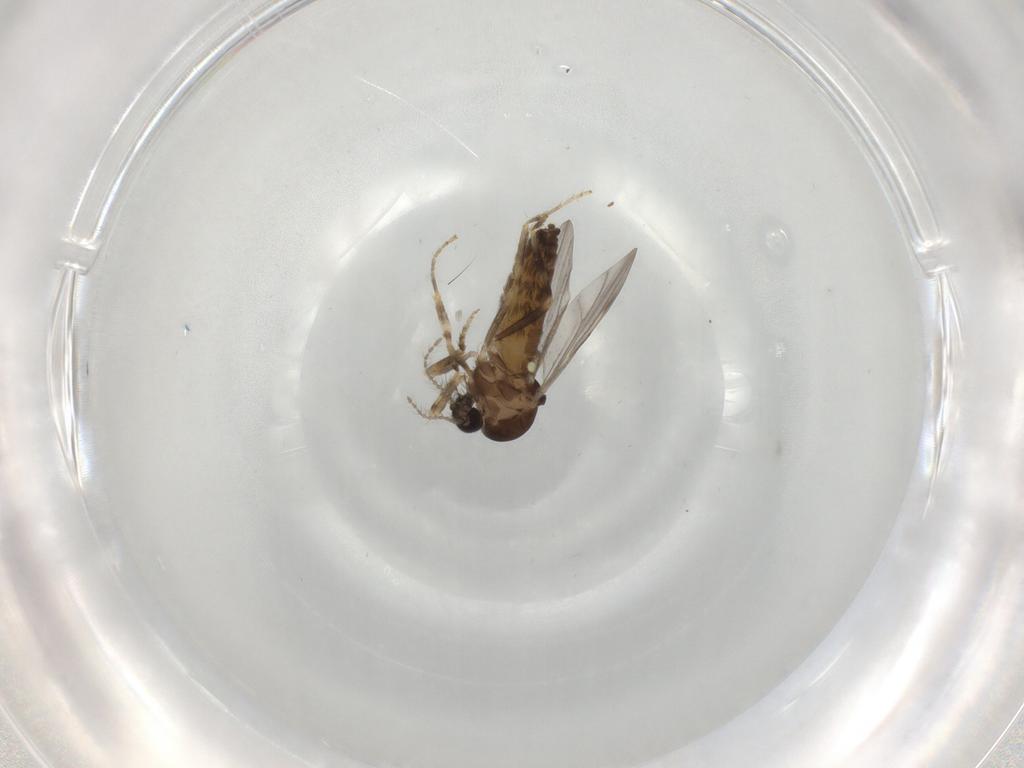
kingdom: Animalia
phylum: Arthropoda
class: Insecta
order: Diptera
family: Ceratopogonidae
